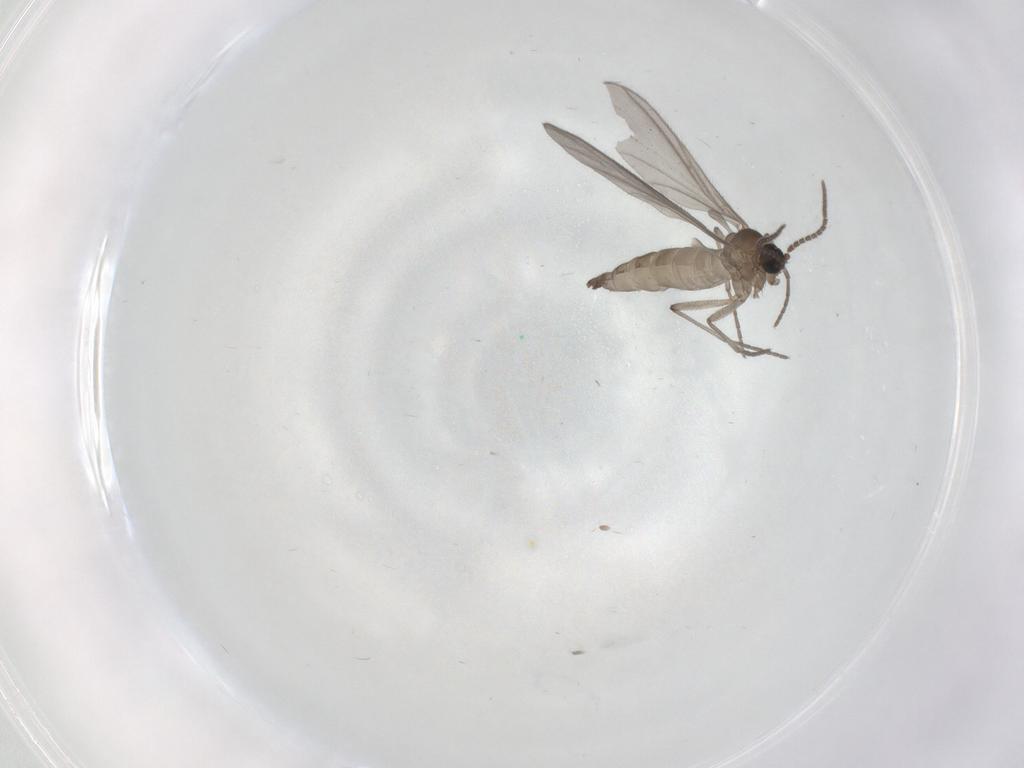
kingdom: Animalia
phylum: Arthropoda
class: Insecta
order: Diptera
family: Sciaridae
